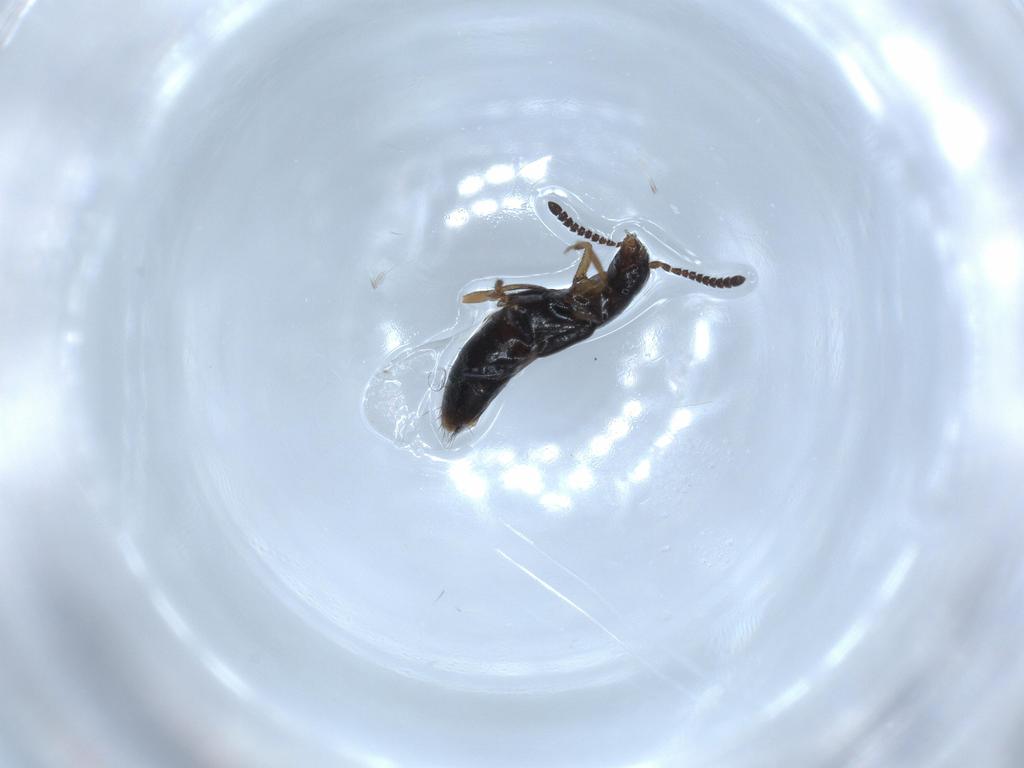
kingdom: Animalia
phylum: Arthropoda
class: Insecta
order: Coleoptera
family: Staphylinidae
